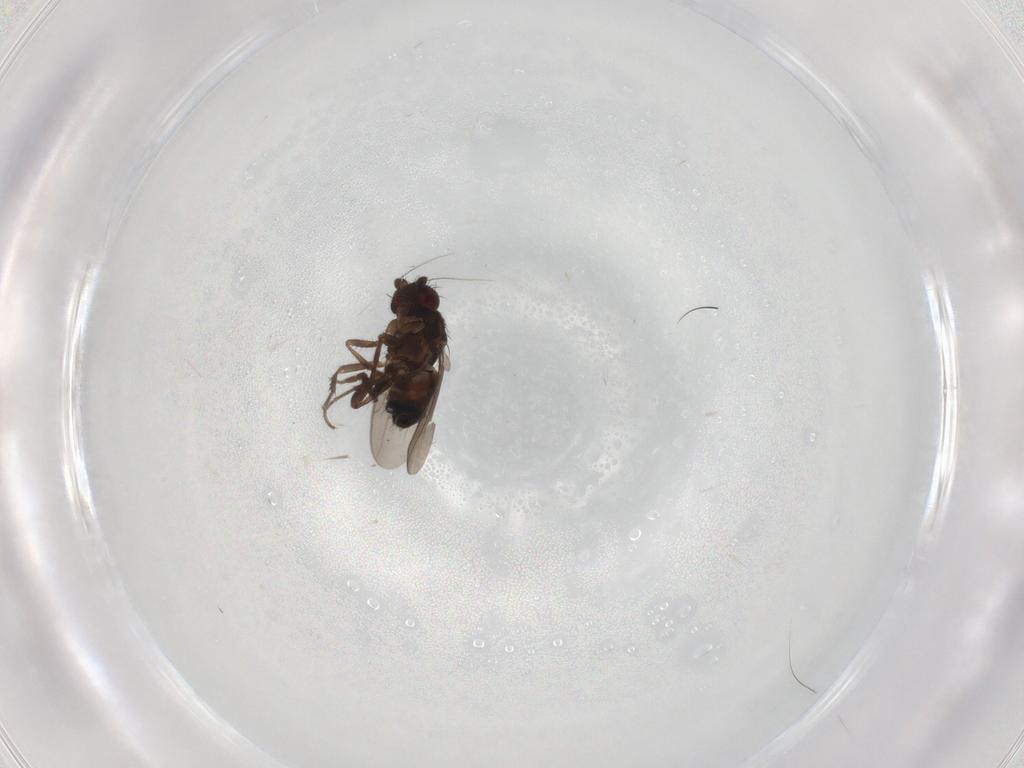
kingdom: Animalia
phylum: Arthropoda
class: Insecta
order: Diptera
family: Sphaeroceridae
